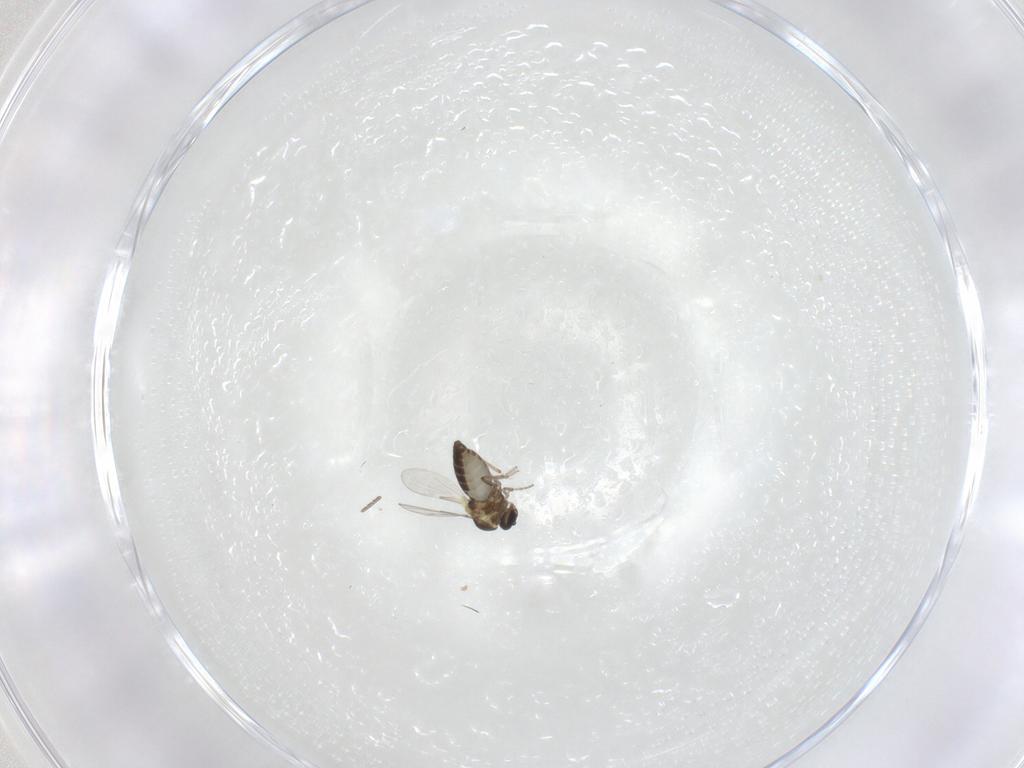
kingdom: Animalia
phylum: Arthropoda
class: Insecta
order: Diptera
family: Ceratopogonidae
